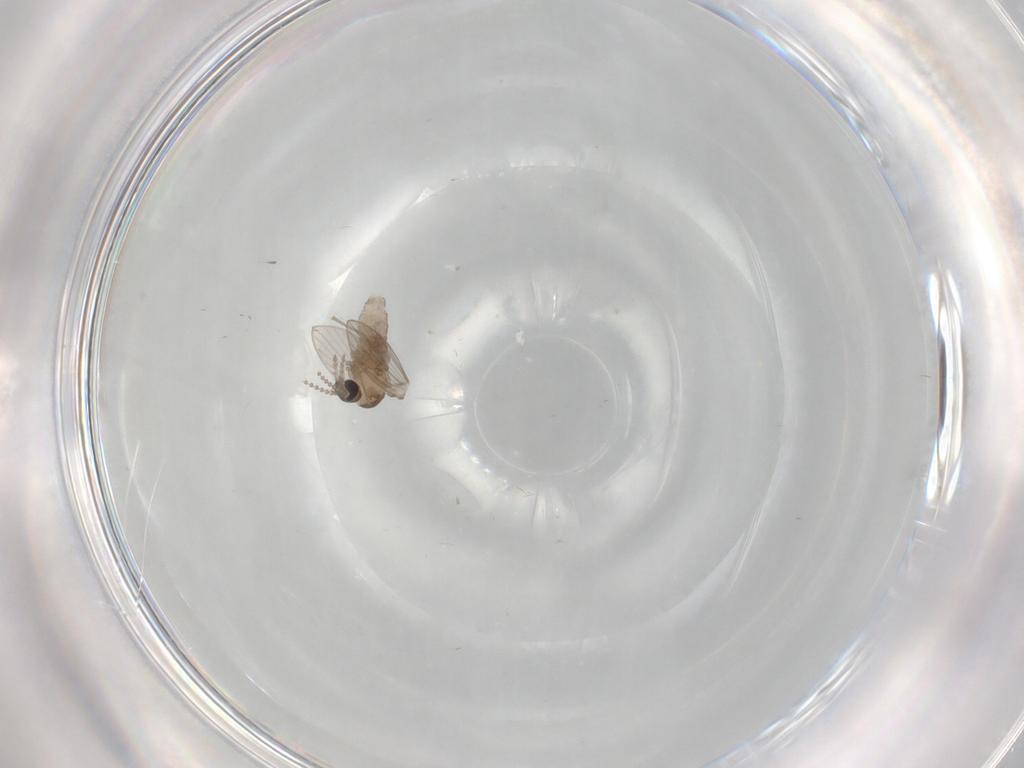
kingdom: Animalia
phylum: Arthropoda
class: Insecta
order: Diptera
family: Psychodidae
